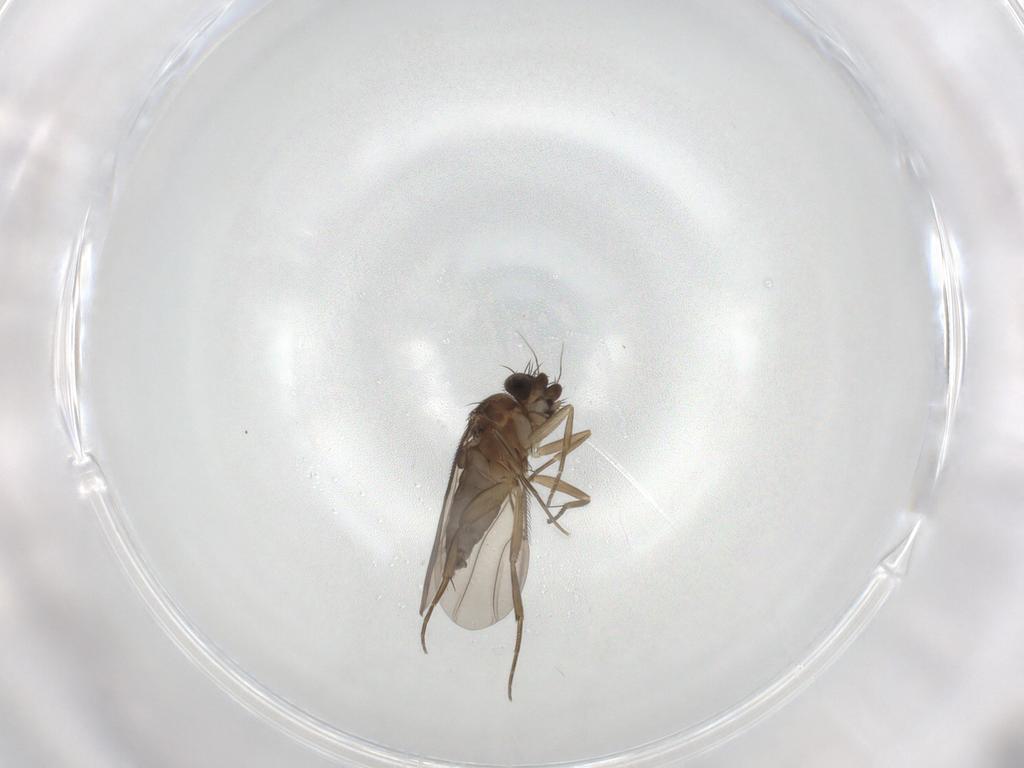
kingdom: Animalia
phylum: Arthropoda
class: Insecta
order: Diptera
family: Phoridae
